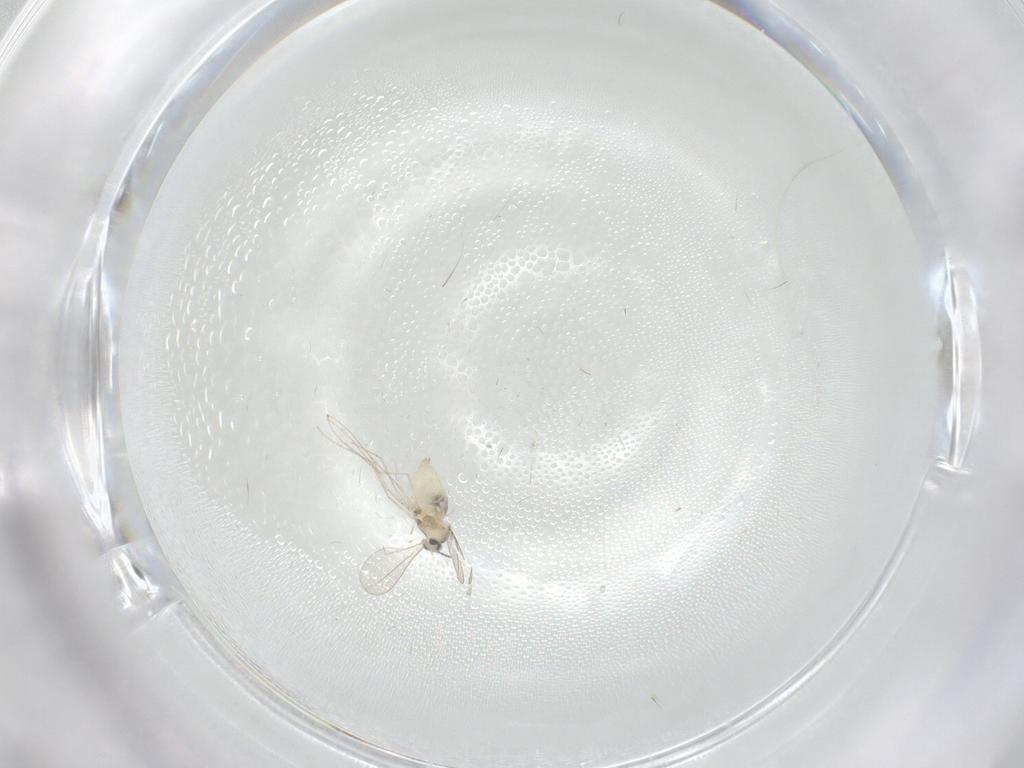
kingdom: Animalia
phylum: Arthropoda
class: Insecta
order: Diptera
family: Cecidomyiidae
